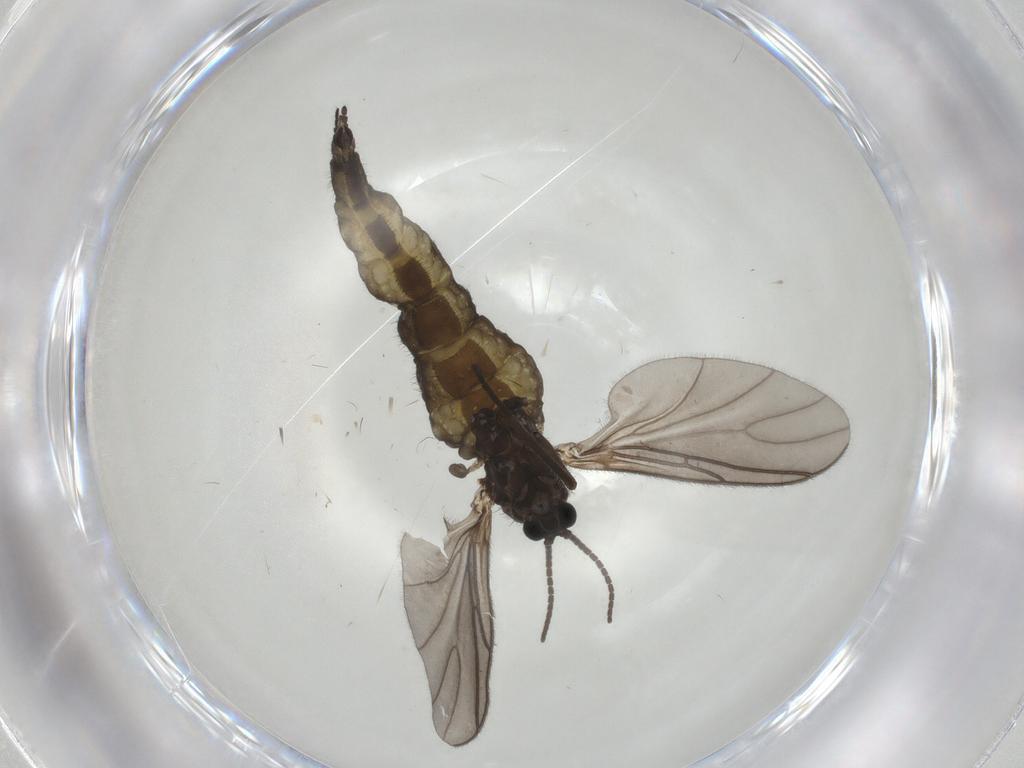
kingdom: Animalia
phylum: Arthropoda
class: Insecta
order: Diptera
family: Sciaridae
